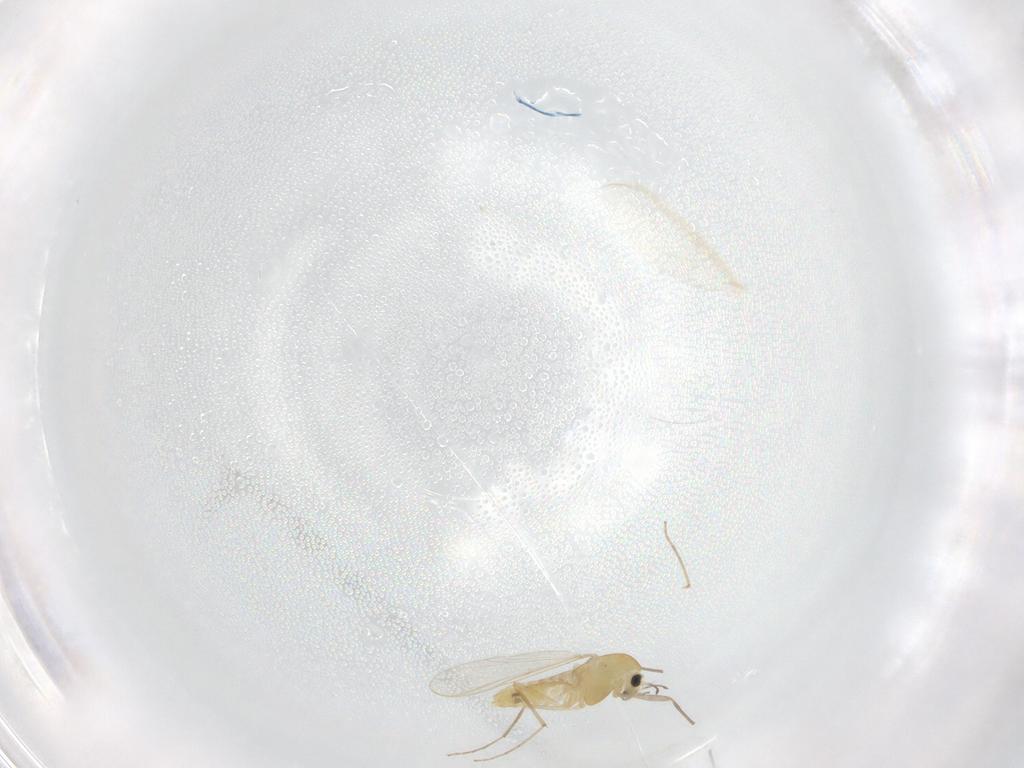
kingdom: Animalia
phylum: Arthropoda
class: Insecta
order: Diptera
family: Chironomidae
